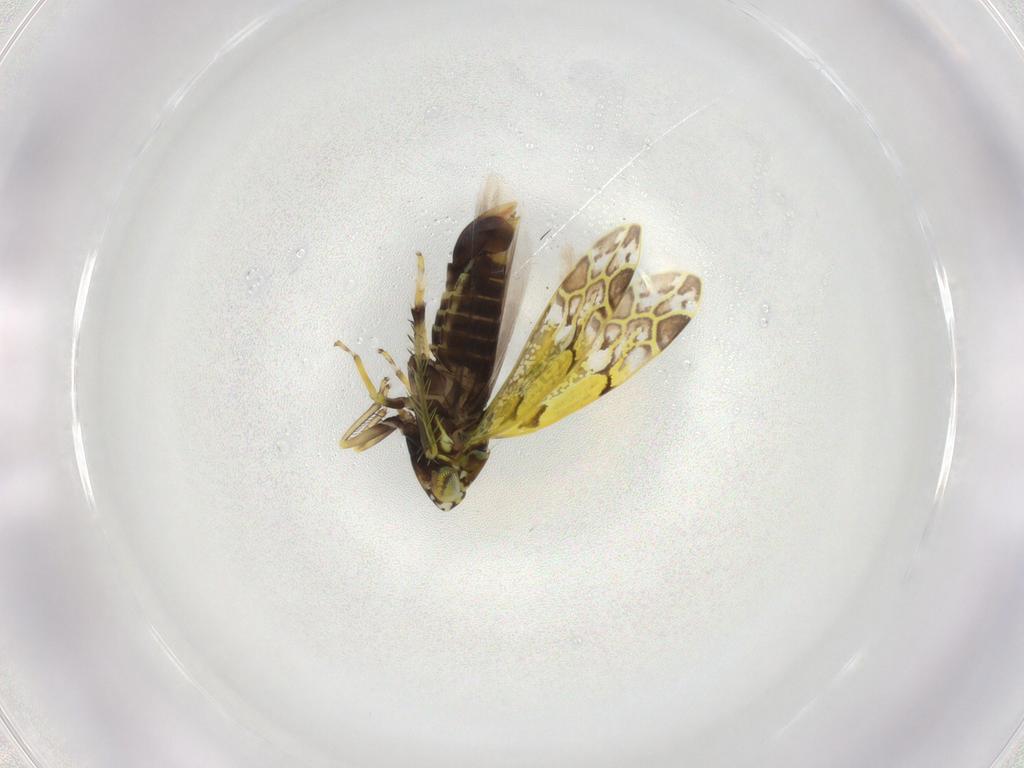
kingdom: Animalia
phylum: Arthropoda
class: Insecta
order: Hemiptera
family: Cicadellidae
